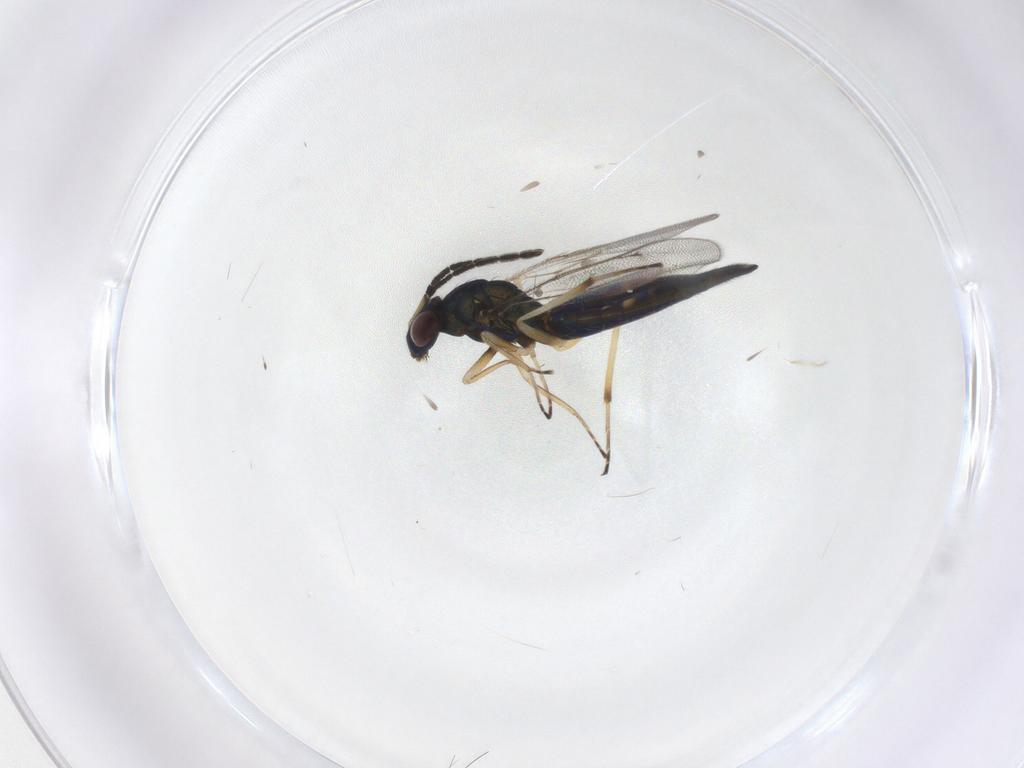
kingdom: Animalia
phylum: Arthropoda
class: Insecta
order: Hymenoptera
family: Eulophidae
